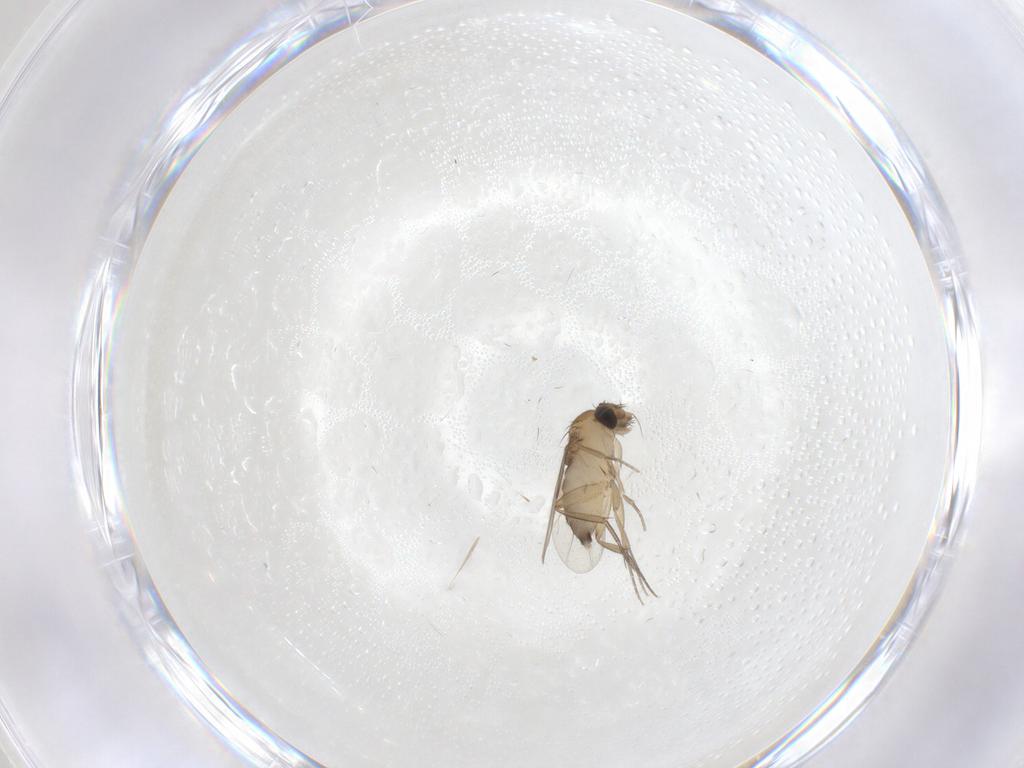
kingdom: Animalia
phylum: Arthropoda
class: Insecta
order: Diptera
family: Phoridae
